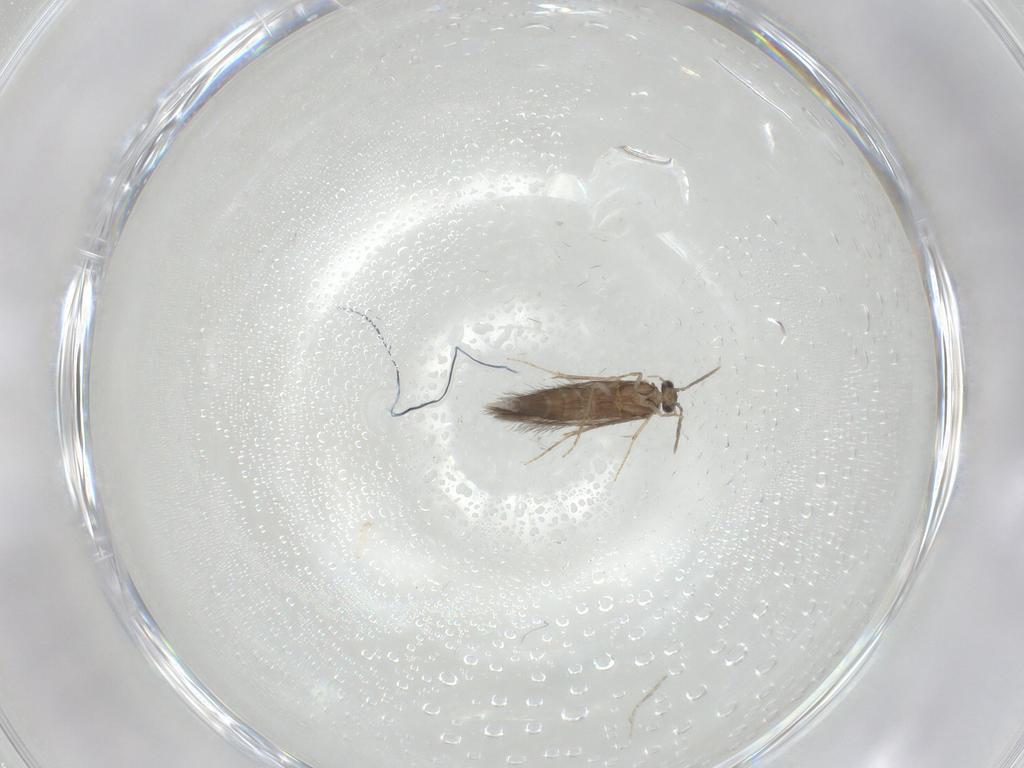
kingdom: Animalia
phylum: Arthropoda
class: Insecta
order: Trichoptera
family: Hydroptilidae
